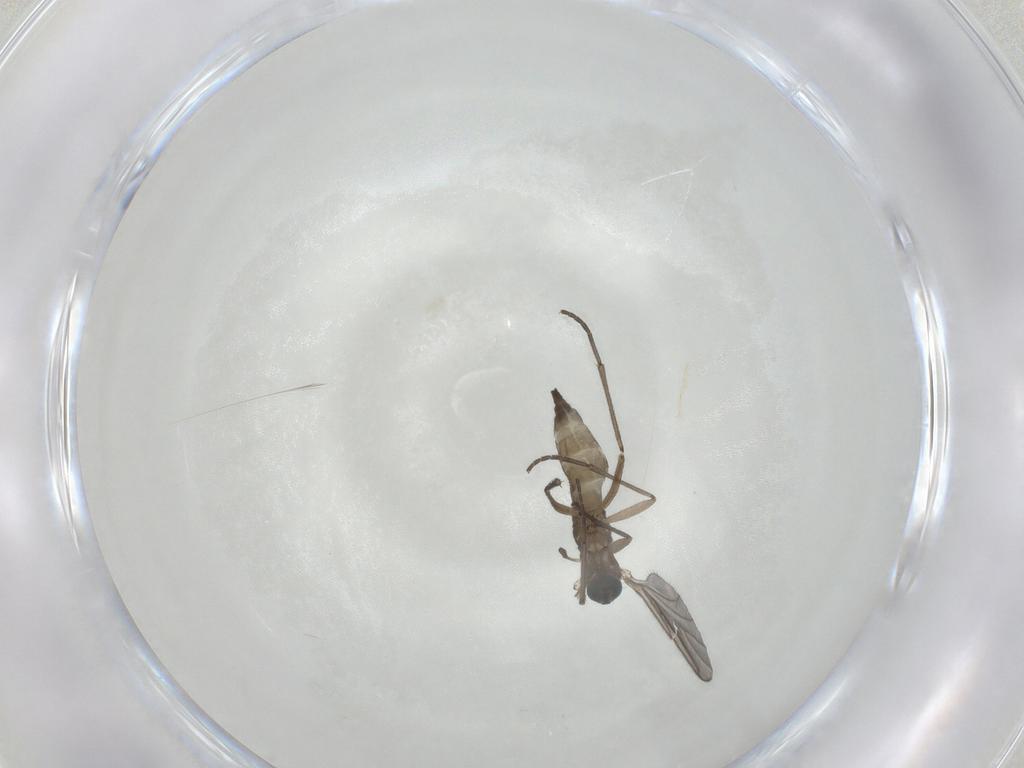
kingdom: Animalia
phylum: Arthropoda
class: Insecta
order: Diptera
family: Sciaridae
